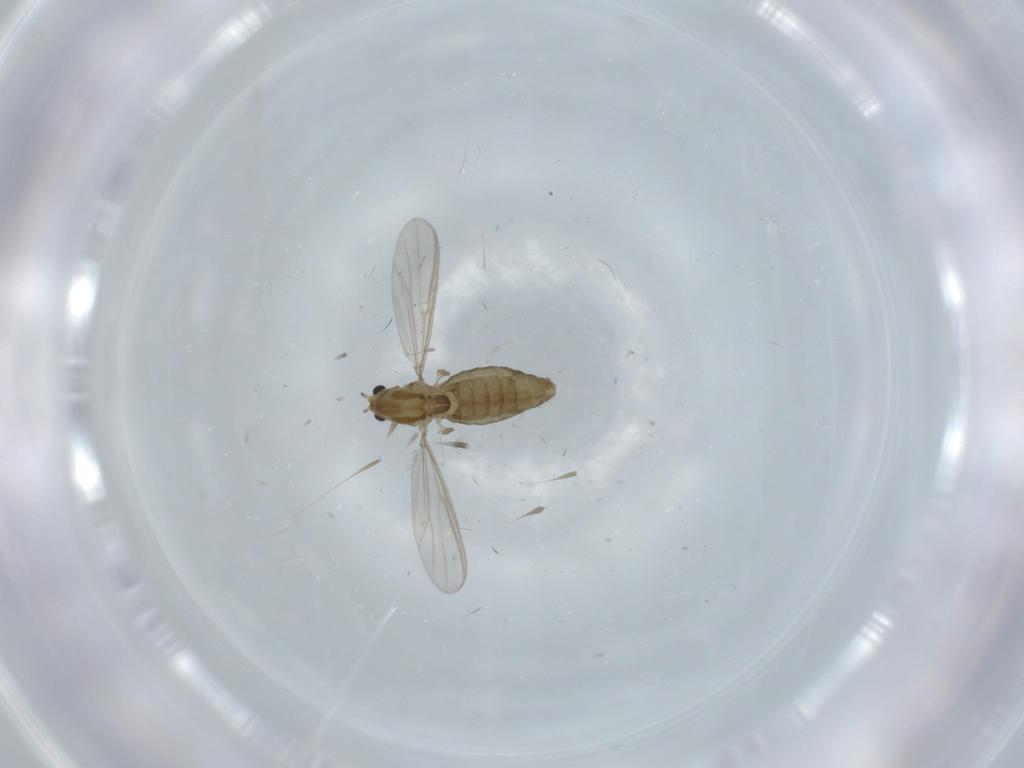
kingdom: Animalia
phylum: Arthropoda
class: Insecta
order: Diptera
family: Chironomidae
